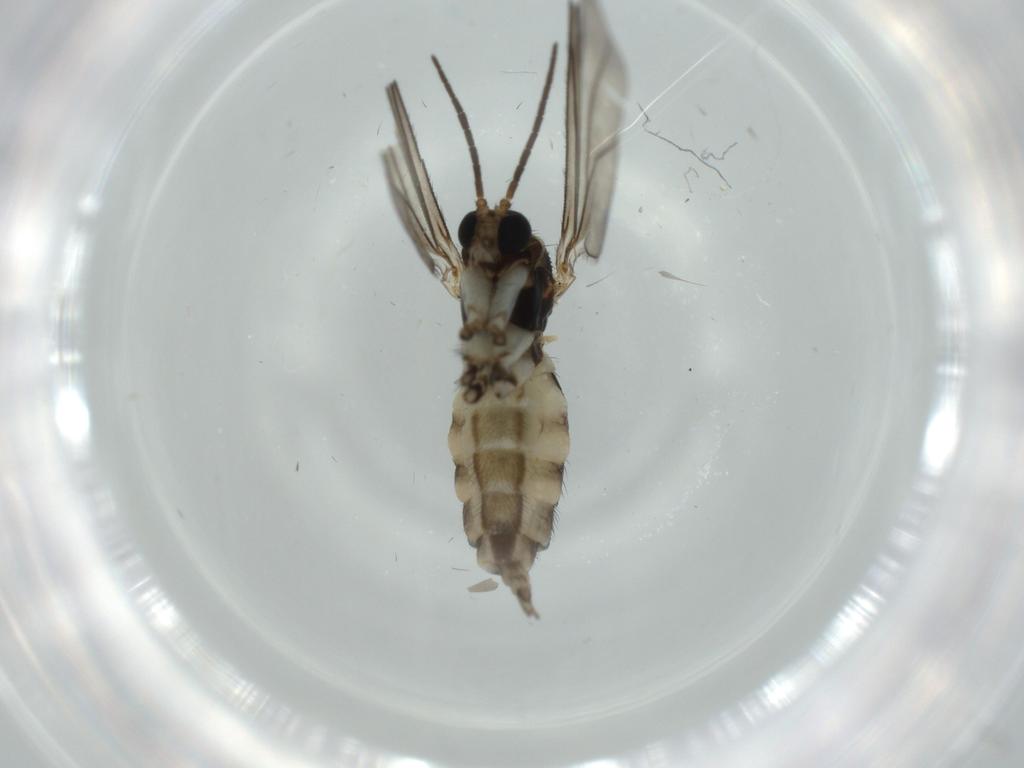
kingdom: Animalia
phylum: Arthropoda
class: Insecta
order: Diptera
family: Sciaridae
